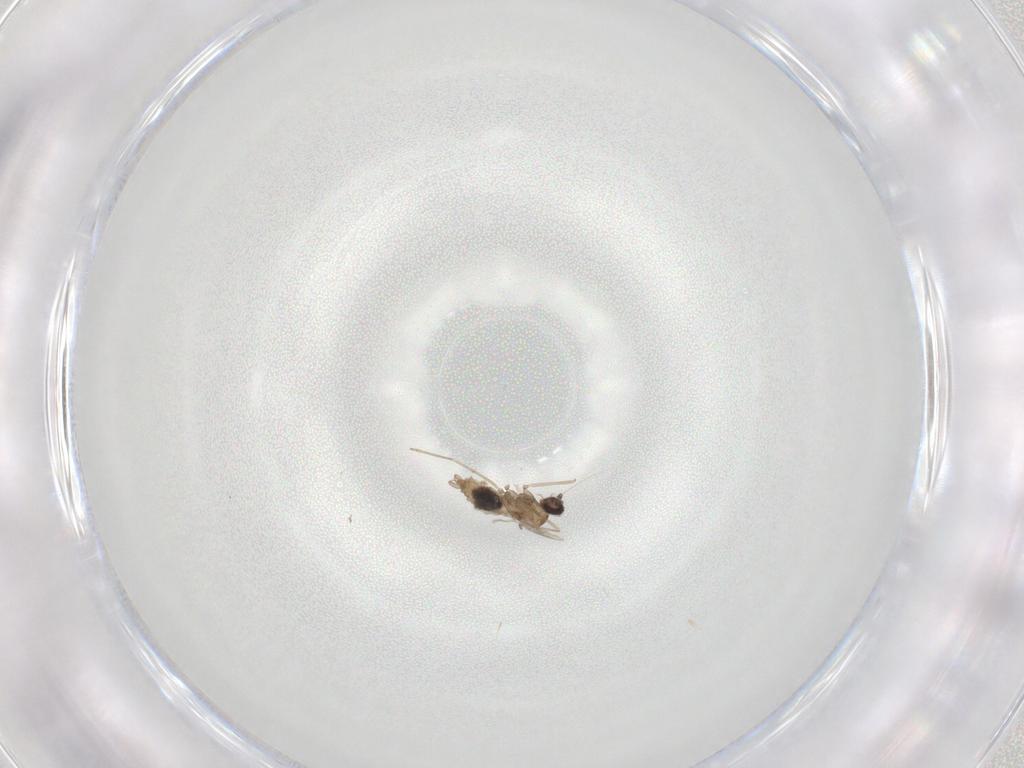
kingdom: Animalia
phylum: Arthropoda
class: Insecta
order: Diptera
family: Cecidomyiidae
